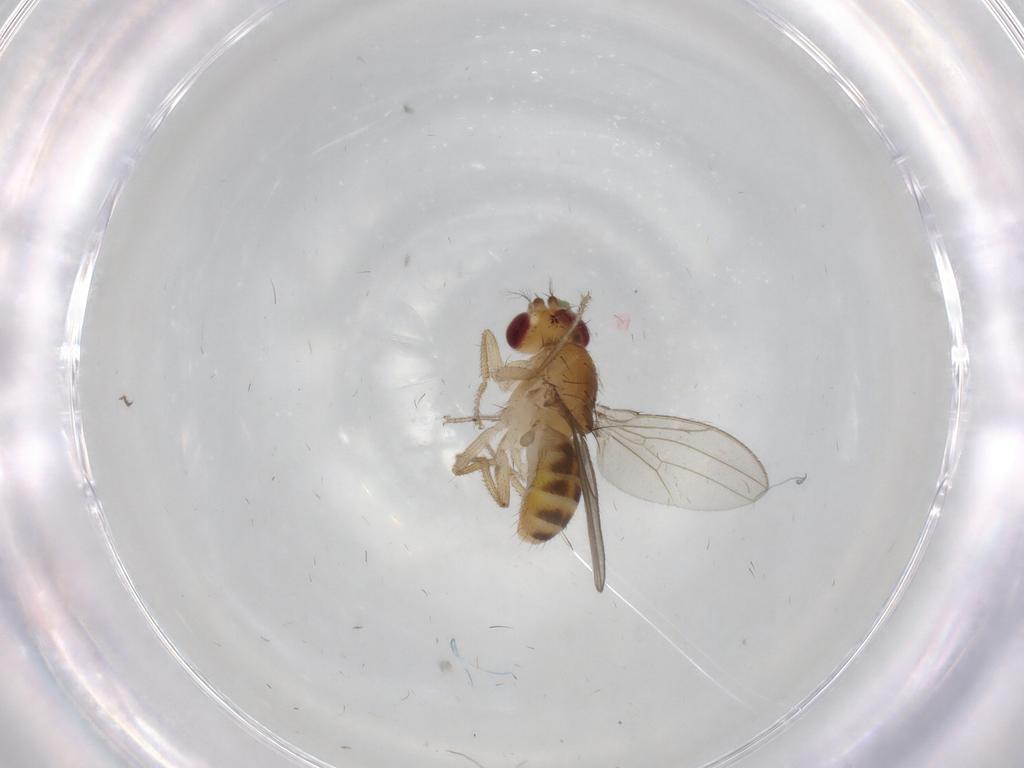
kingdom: Animalia
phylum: Arthropoda
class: Insecta
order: Diptera
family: Drosophilidae
